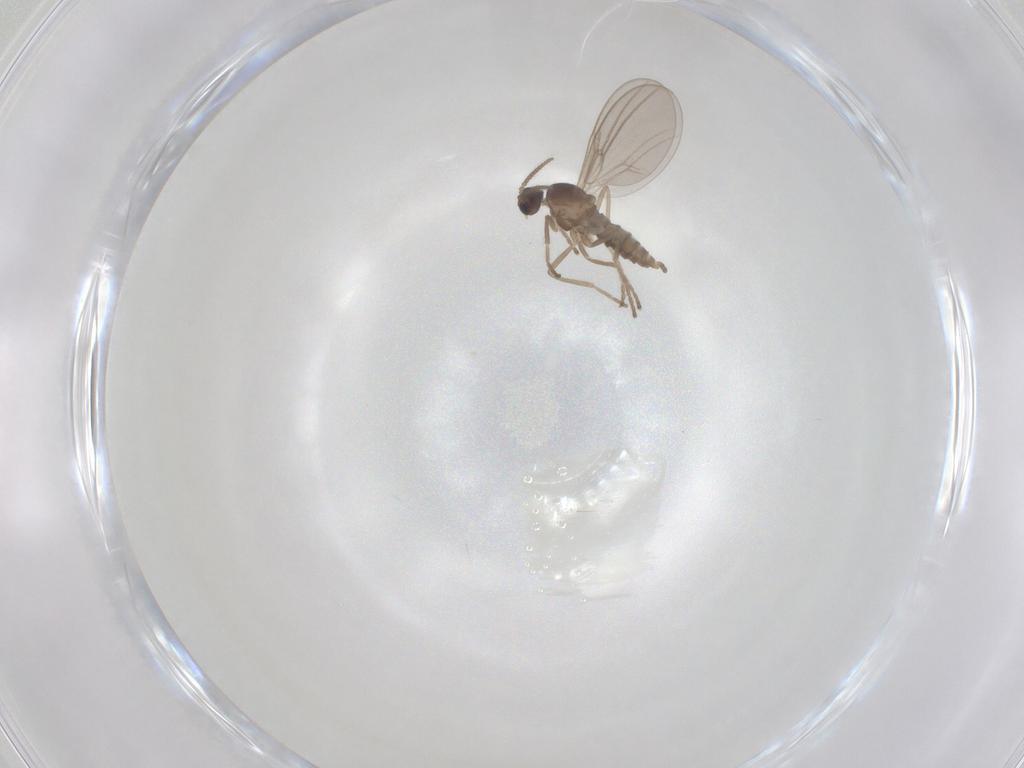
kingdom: Animalia
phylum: Arthropoda
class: Insecta
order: Diptera
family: Cecidomyiidae
